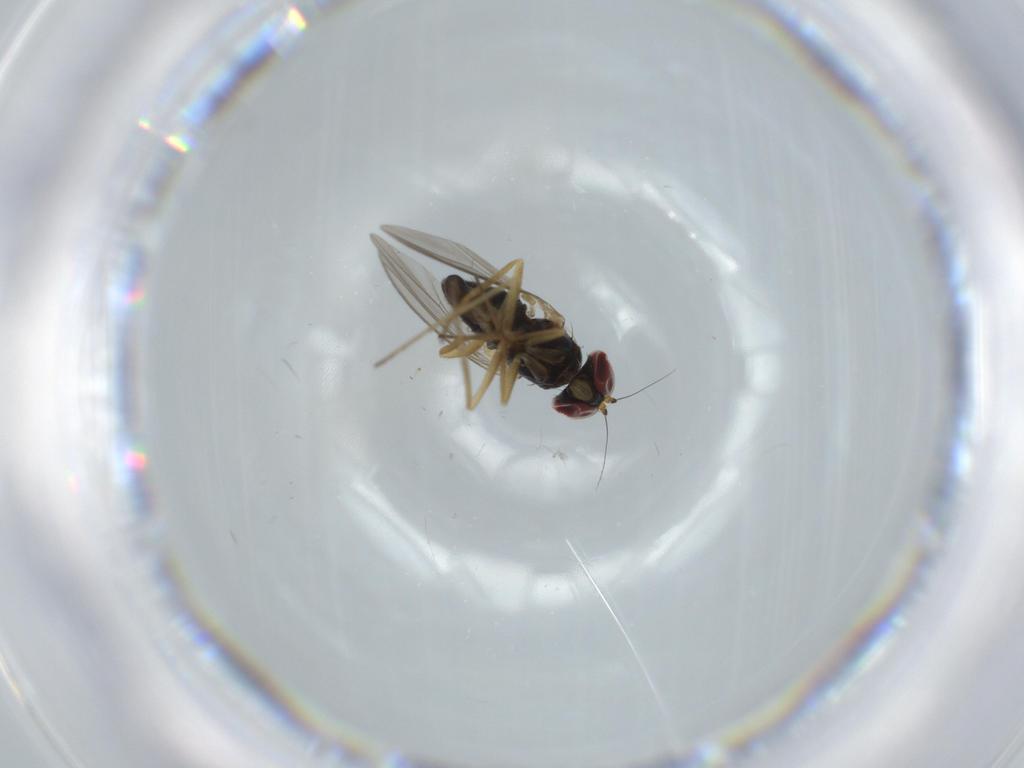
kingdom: Animalia
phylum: Arthropoda
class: Insecta
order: Diptera
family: Dolichopodidae
